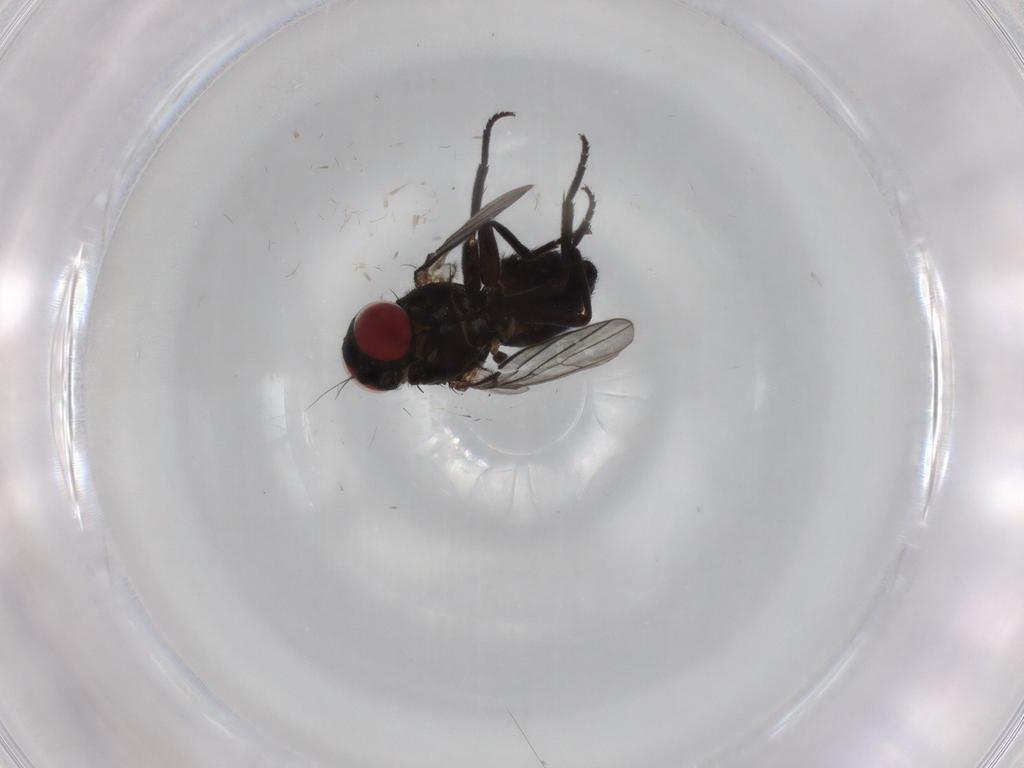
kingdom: Animalia
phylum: Arthropoda
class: Insecta
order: Diptera
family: Agromyzidae
